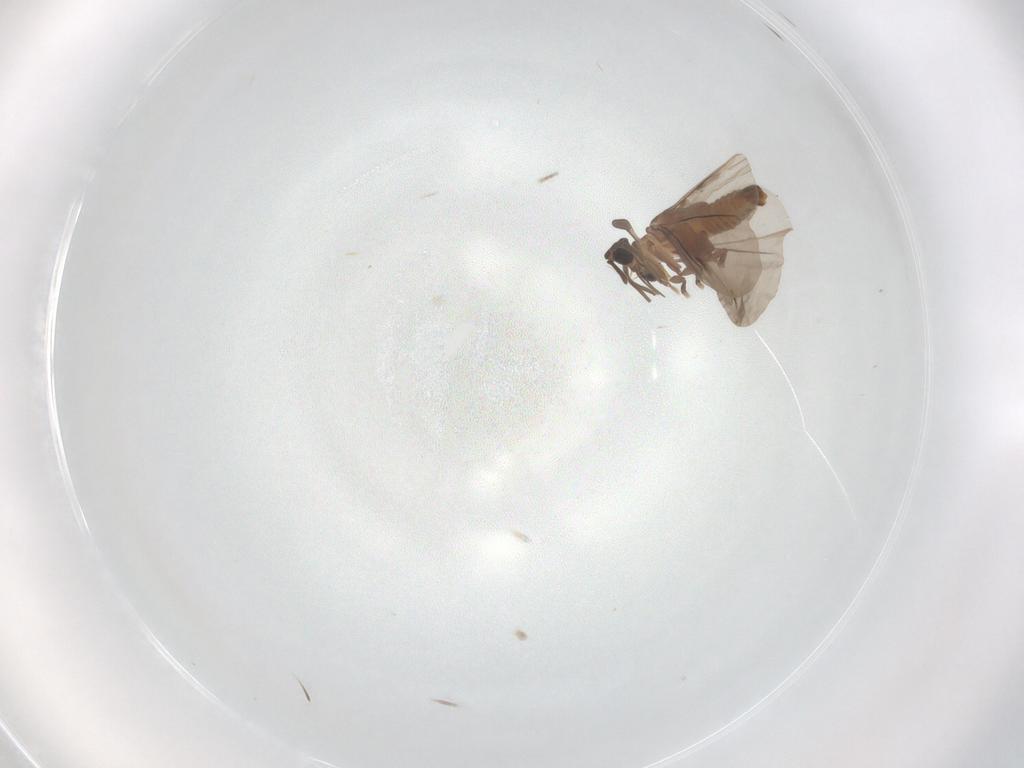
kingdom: Animalia
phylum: Arthropoda
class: Insecta
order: Strepsiptera
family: Myrmecolacidae
